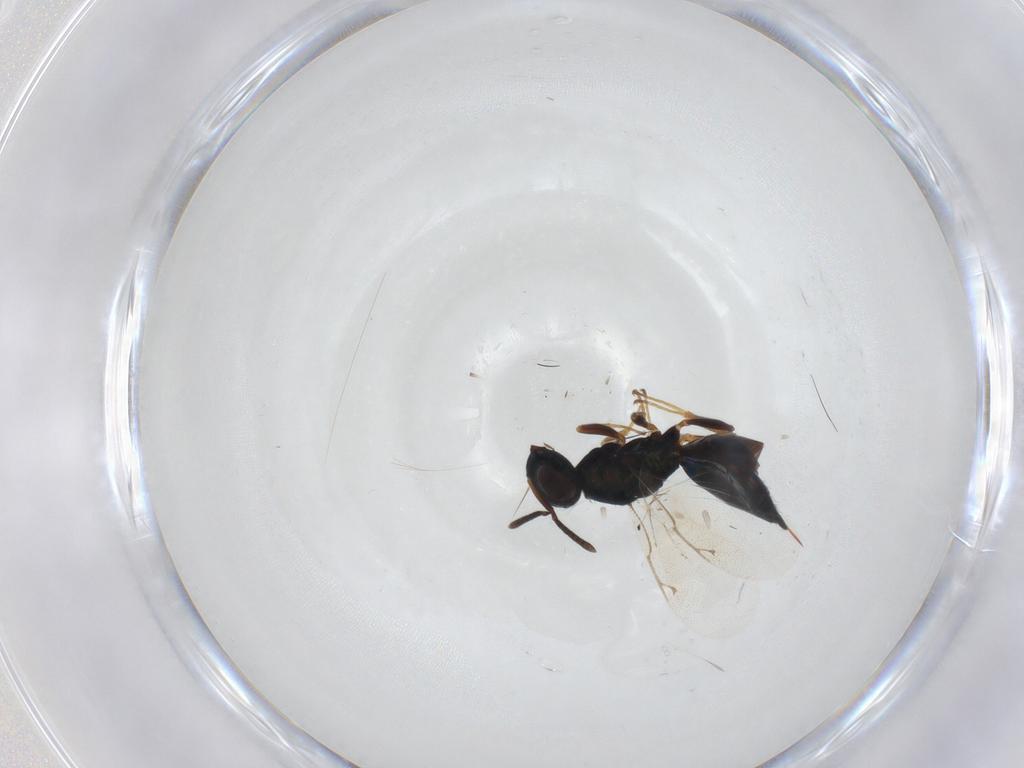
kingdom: Animalia
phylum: Arthropoda
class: Insecta
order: Hymenoptera
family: Pteromalidae
